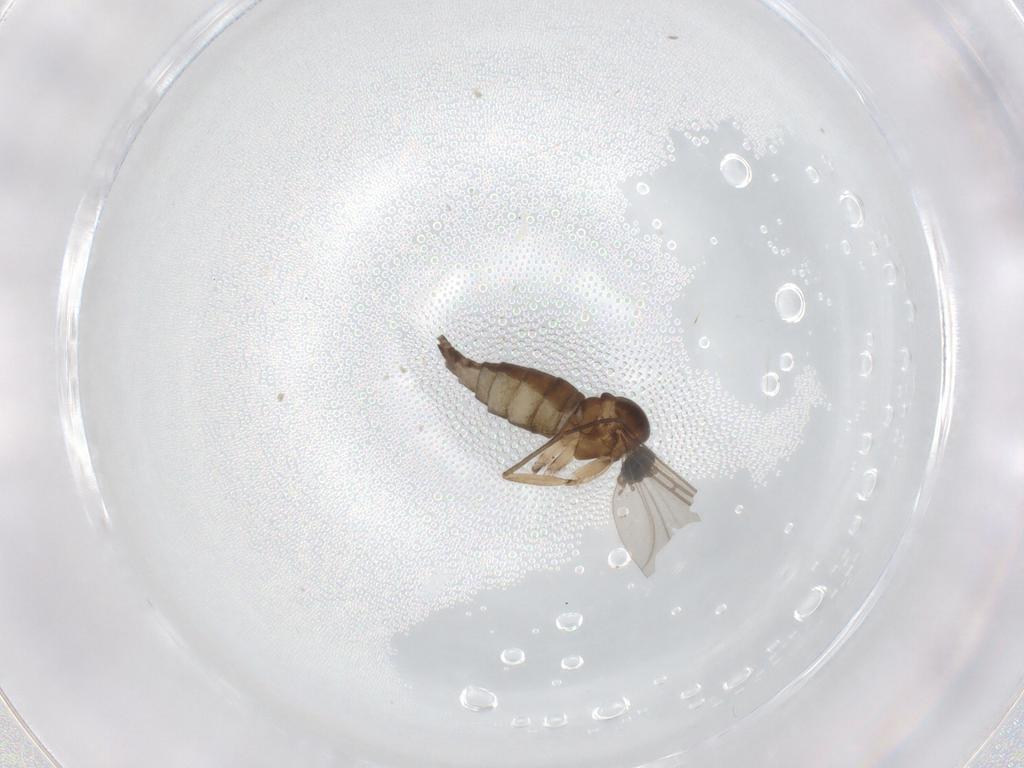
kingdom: Animalia
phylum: Arthropoda
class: Insecta
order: Diptera
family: Sciaridae
